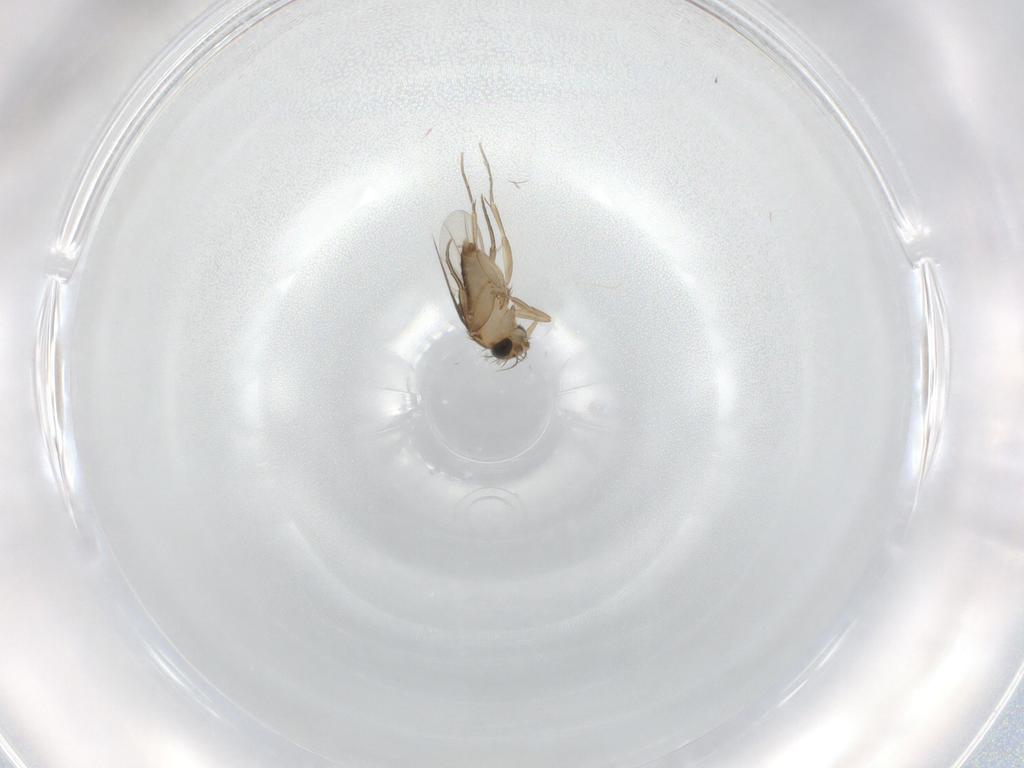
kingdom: Animalia
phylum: Arthropoda
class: Insecta
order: Diptera
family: Phoridae
